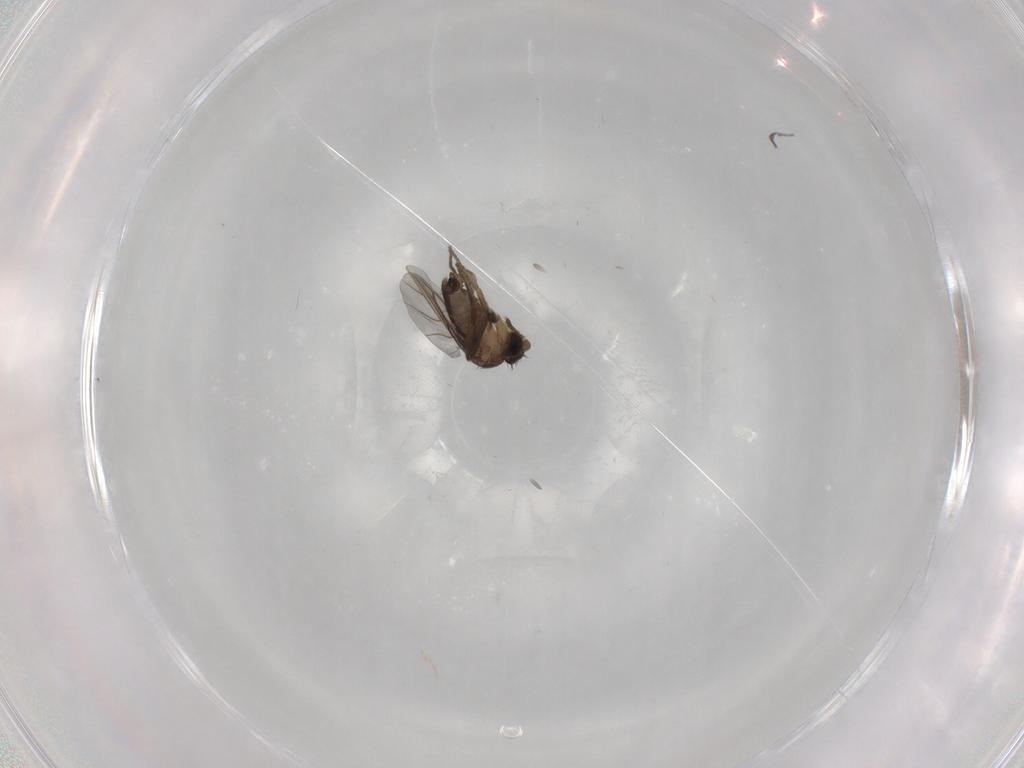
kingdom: Animalia
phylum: Arthropoda
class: Insecta
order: Diptera
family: Phoridae
